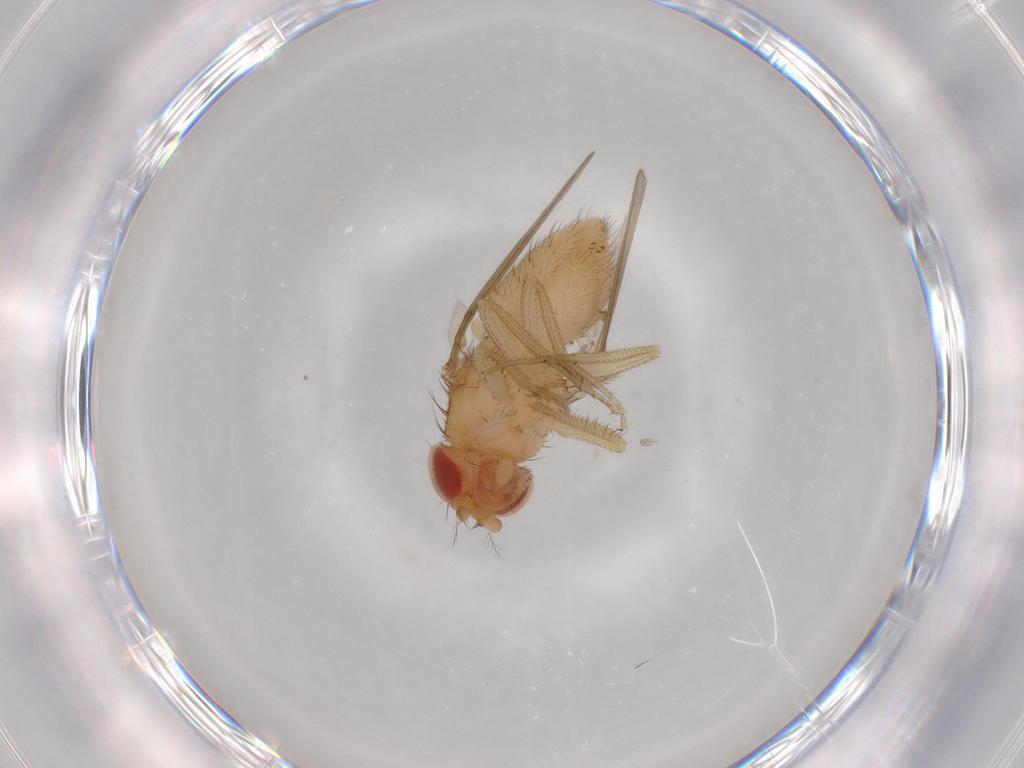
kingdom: Animalia
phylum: Arthropoda
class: Insecta
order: Diptera
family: Drosophilidae
